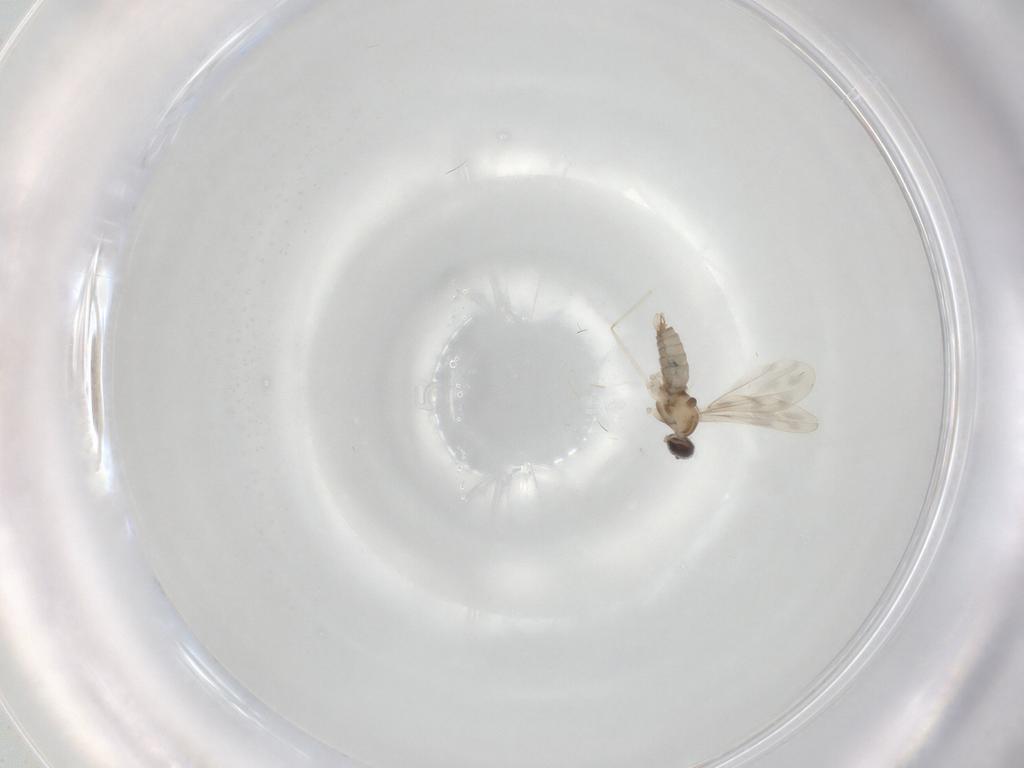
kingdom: Animalia
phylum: Arthropoda
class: Insecta
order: Diptera
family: Cecidomyiidae
